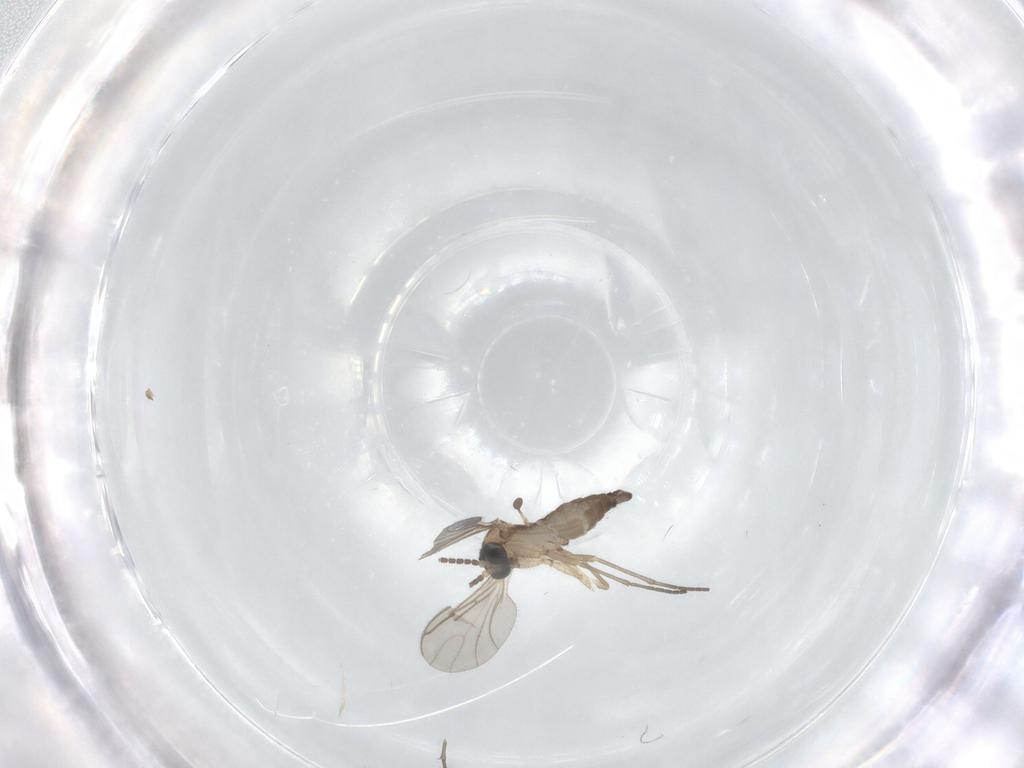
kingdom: Animalia
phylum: Arthropoda
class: Insecta
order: Diptera
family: Sciaridae
